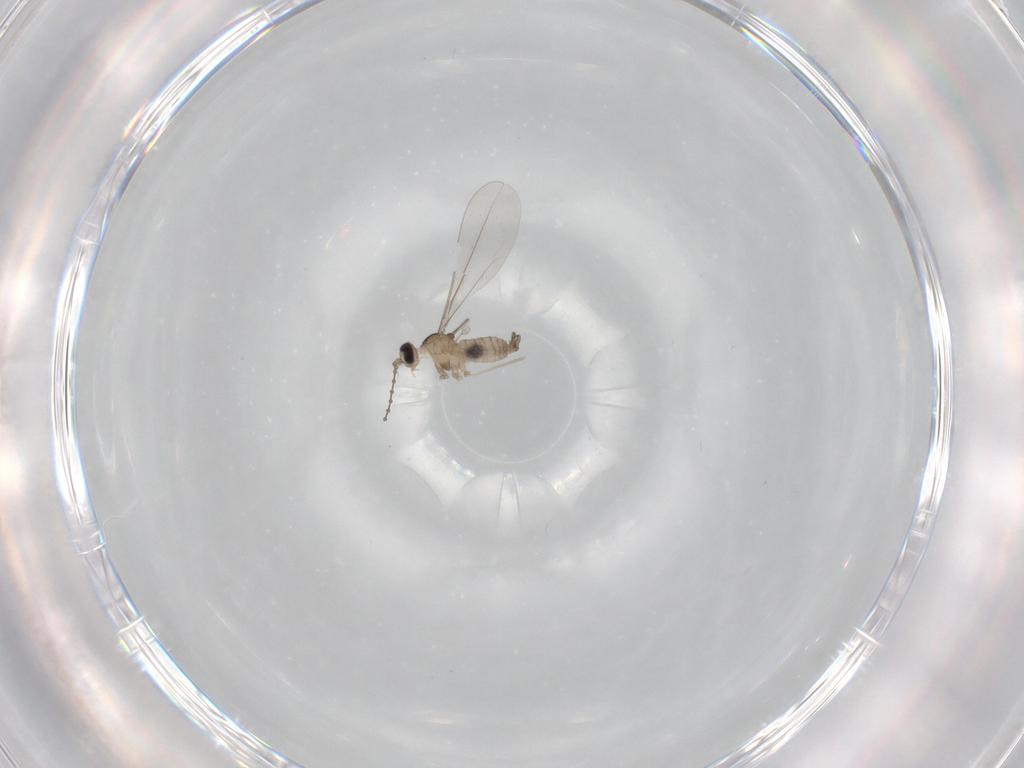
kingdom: Animalia
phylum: Arthropoda
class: Insecta
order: Diptera
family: Cecidomyiidae
